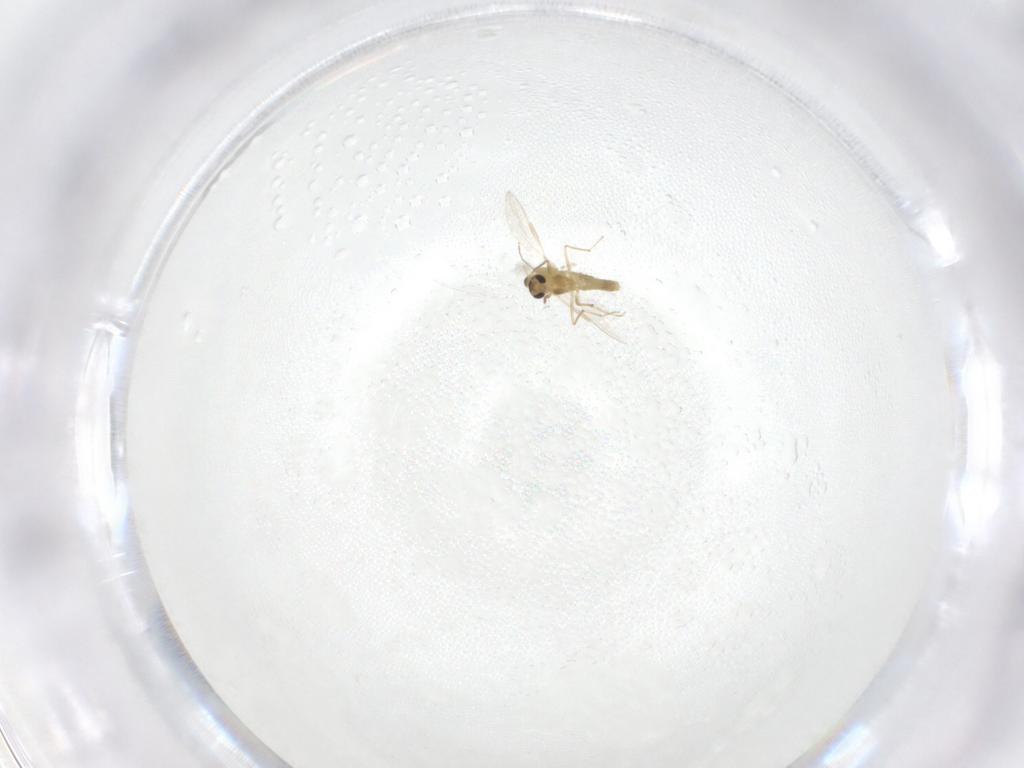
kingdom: Animalia
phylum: Arthropoda
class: Insecta
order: Diptera
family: Chironomidae
